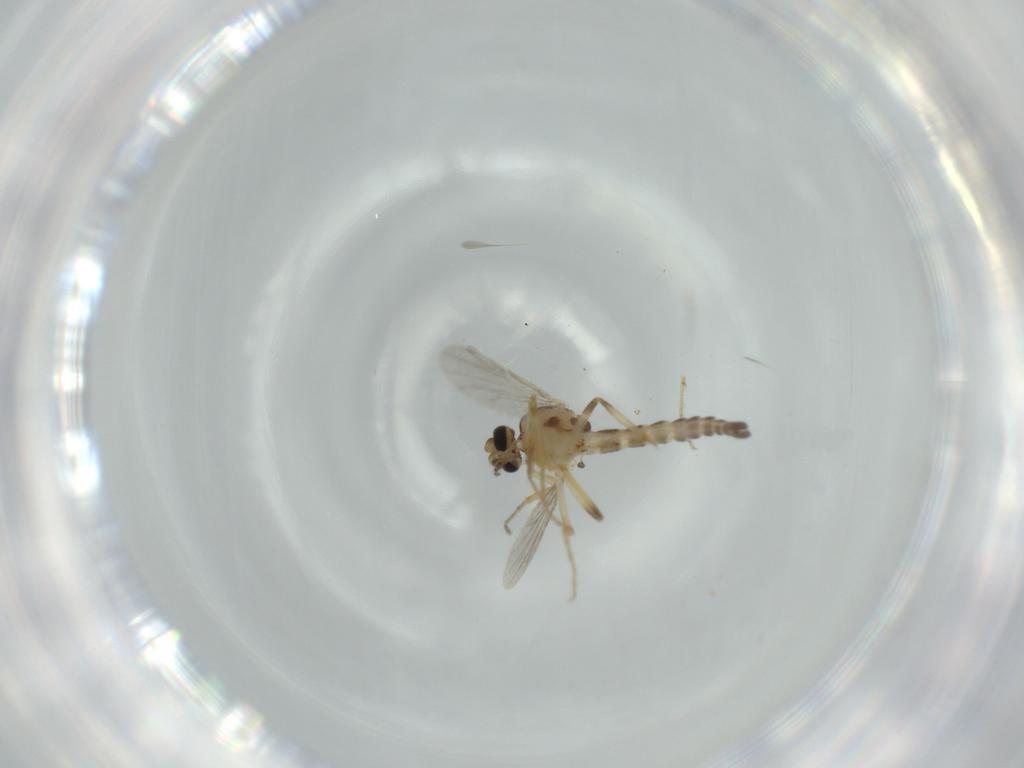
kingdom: Animalia
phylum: Arthropoda
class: Insecta
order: Diptera
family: Ceratopogonidae
